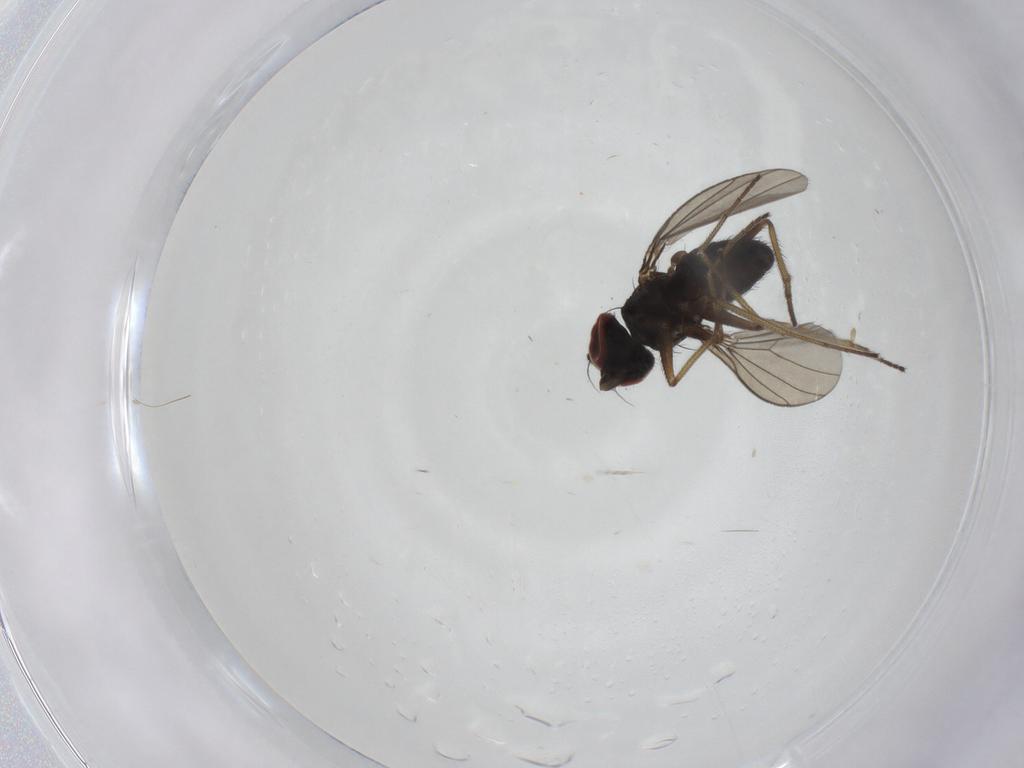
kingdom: Animalia
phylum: Arthropoda
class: Insecta
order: Diptera
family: Dolichopodidae
